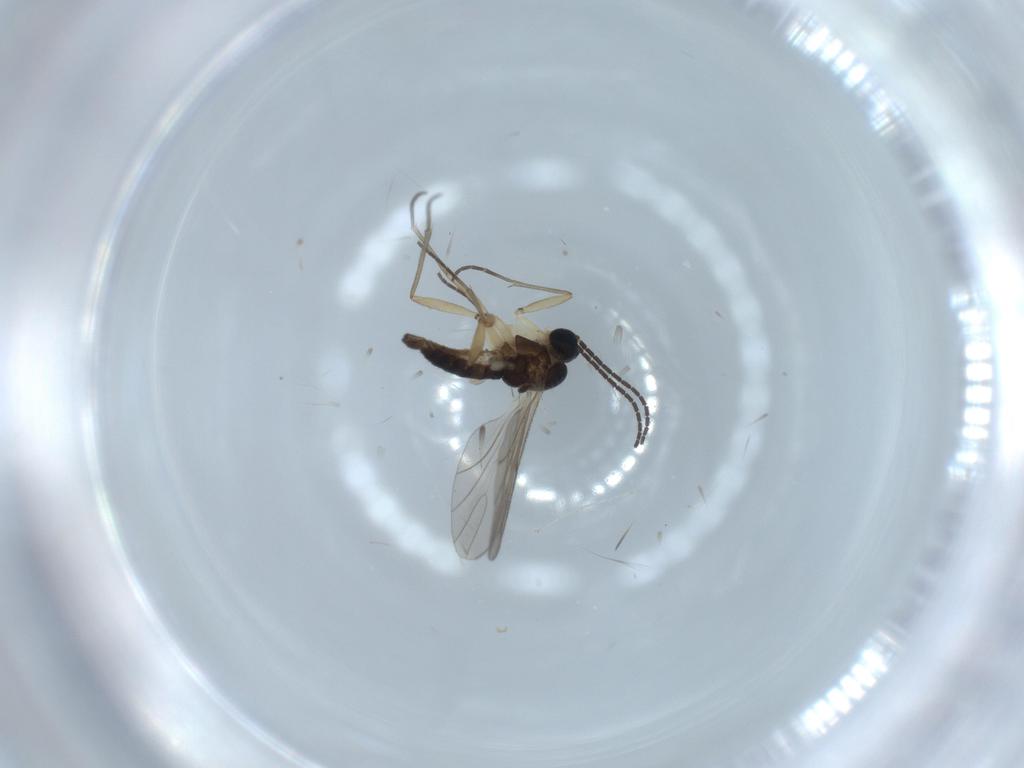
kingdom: Animalia
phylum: Arthropoda
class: Insecta
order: Diptera
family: Sciaridae
